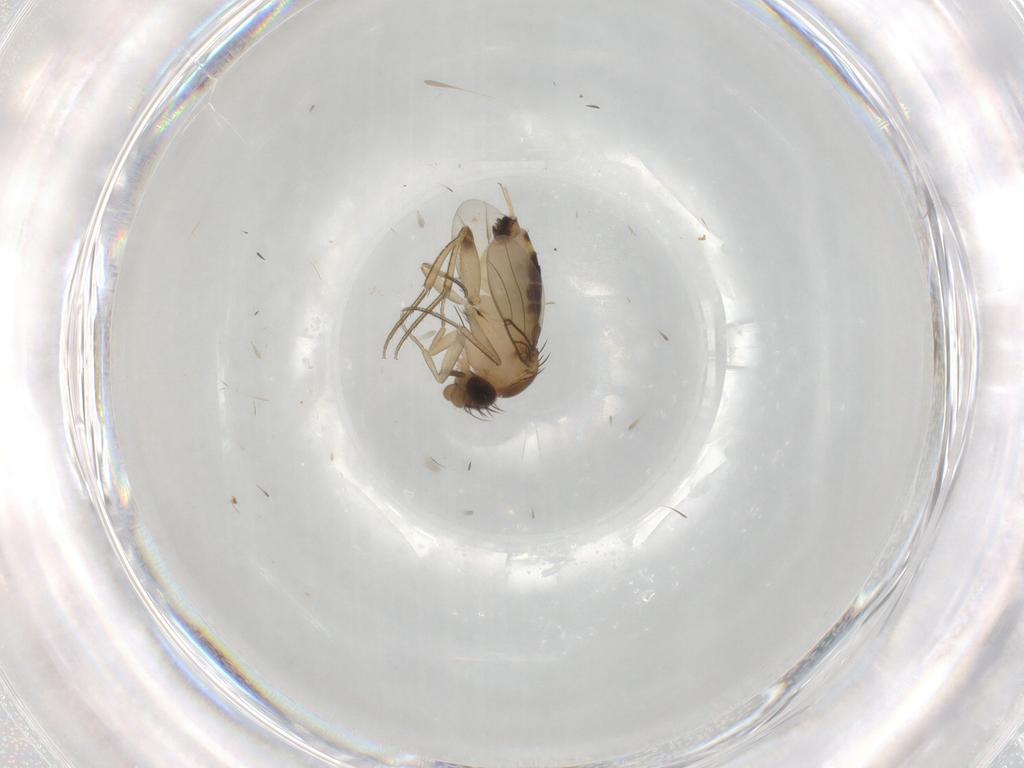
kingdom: Animalia
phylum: Arthropoda
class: Insecta
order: Diptera
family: Phoridae
